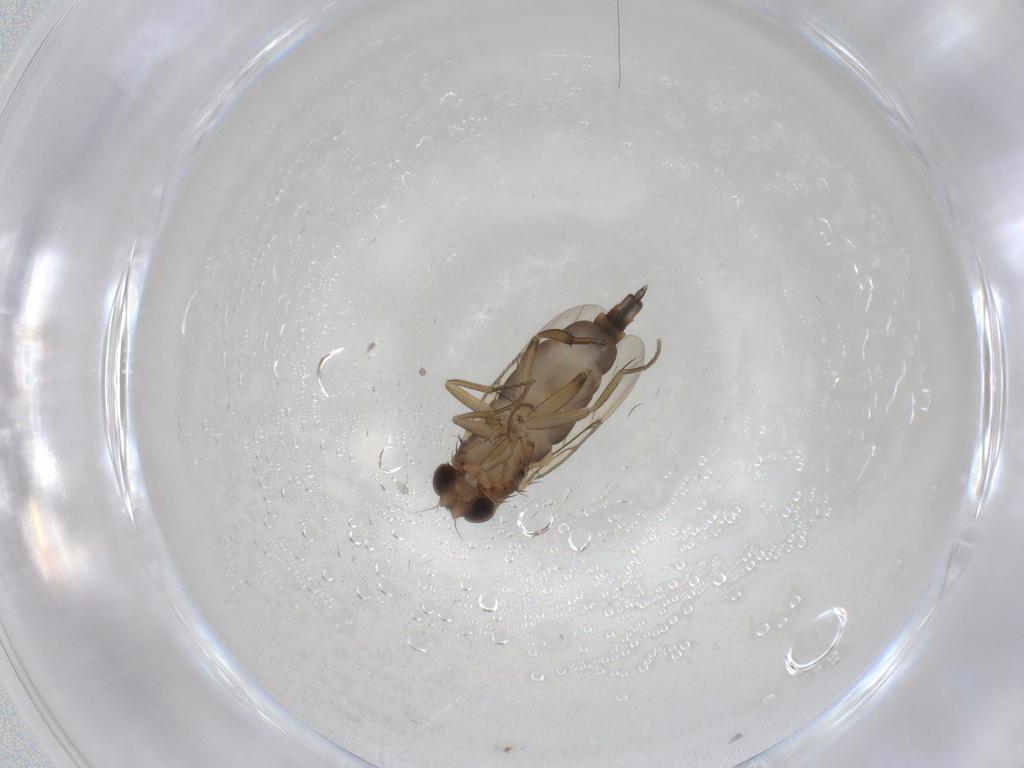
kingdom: Animalia
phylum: Arthropoda
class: Insecta
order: Diptera
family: Phoridae
